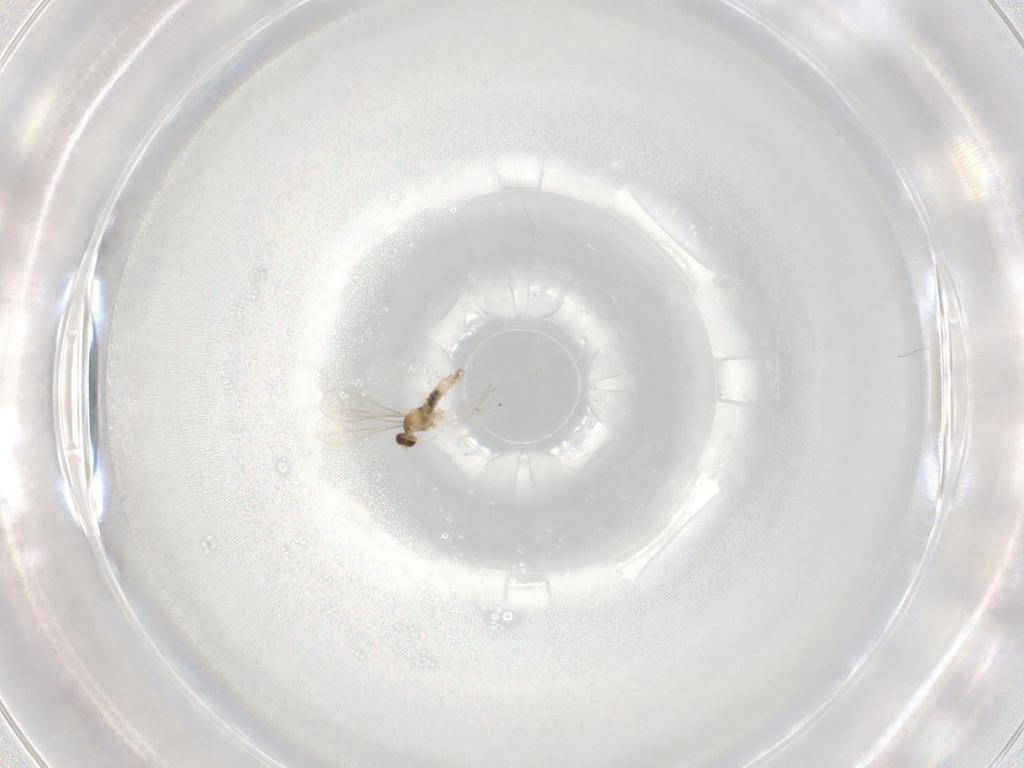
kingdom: Animalia
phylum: Arthropoda
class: Insecta
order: Diptera
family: Cecidomyiidae
